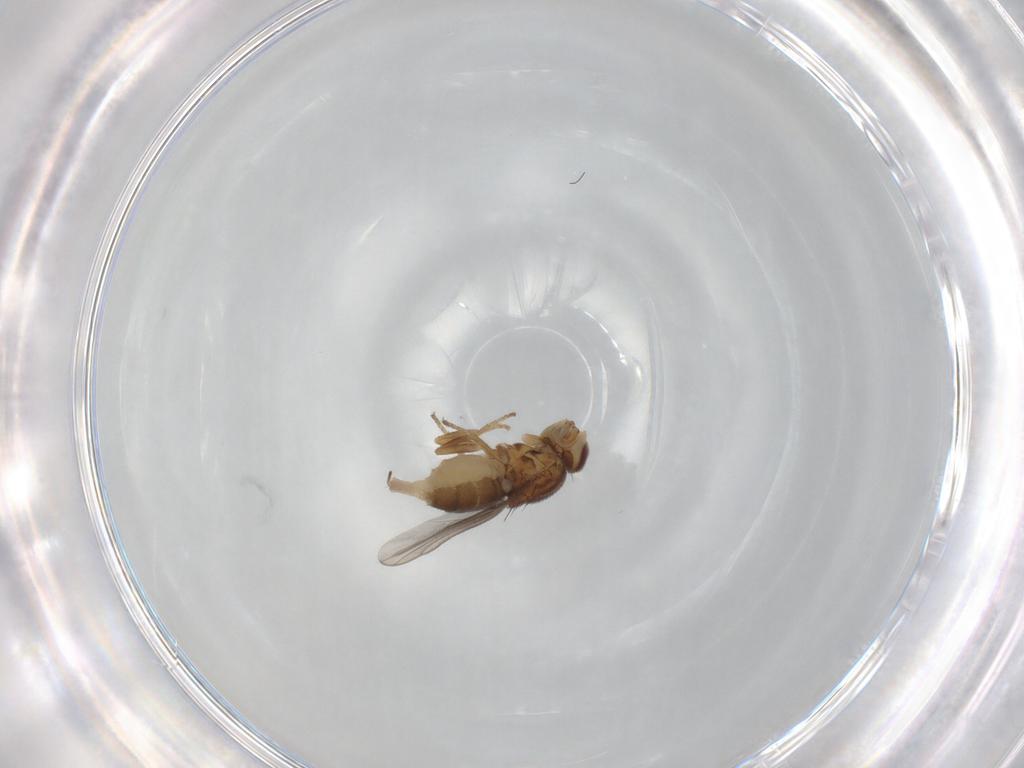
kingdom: Animalia
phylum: Arthropoda
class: Insecta
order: Diptera
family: Chloropidae
